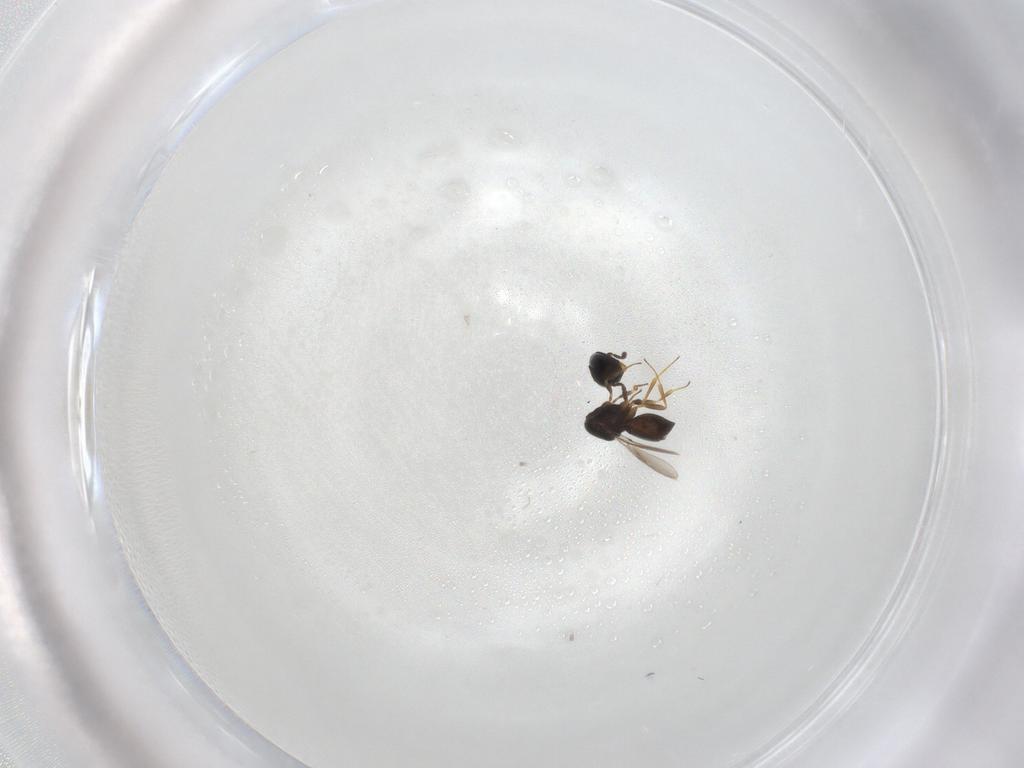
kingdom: Animalia
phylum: Arthropoda
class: Insecta
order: Hymenoptera
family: Scelionidae
